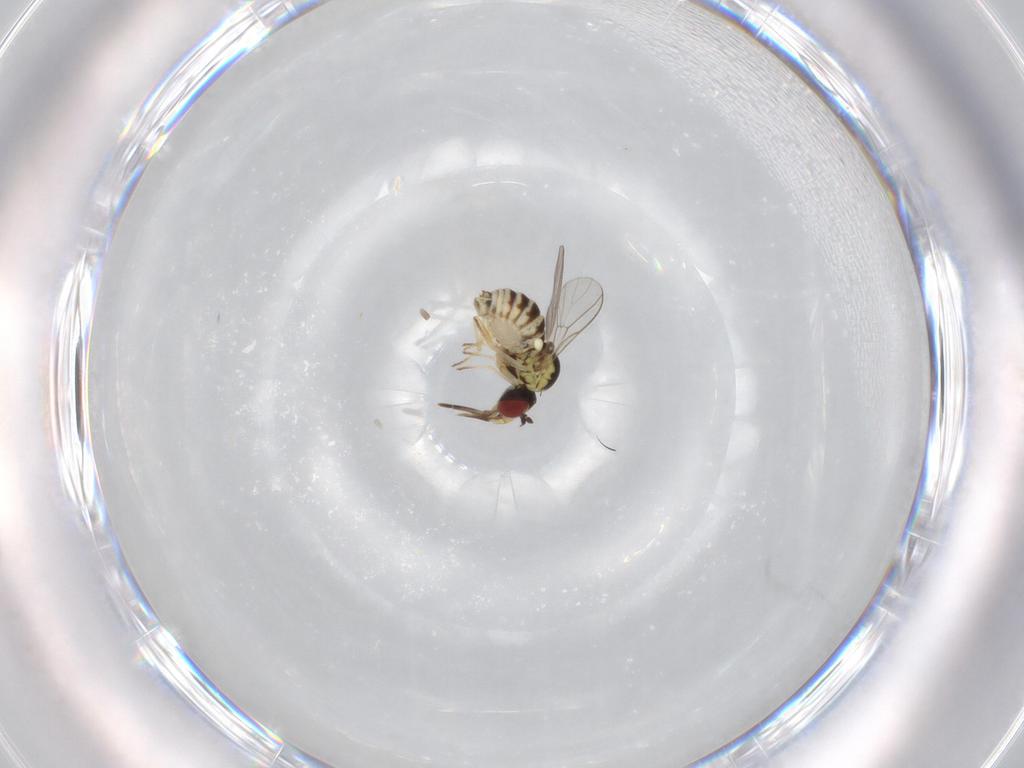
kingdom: Animalia
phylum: Arthropoda
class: Insecta
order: Diptera
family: Bombyliidae
